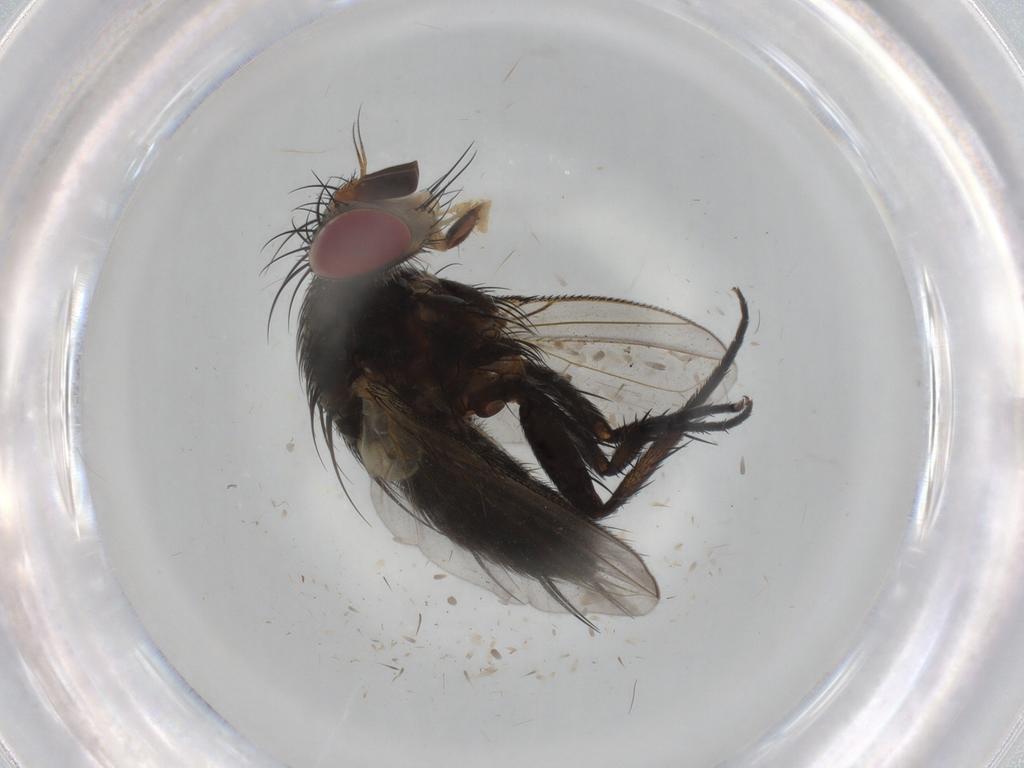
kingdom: Animalia
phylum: Arthropoda
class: Insecta
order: Diptera
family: Tachinidae
